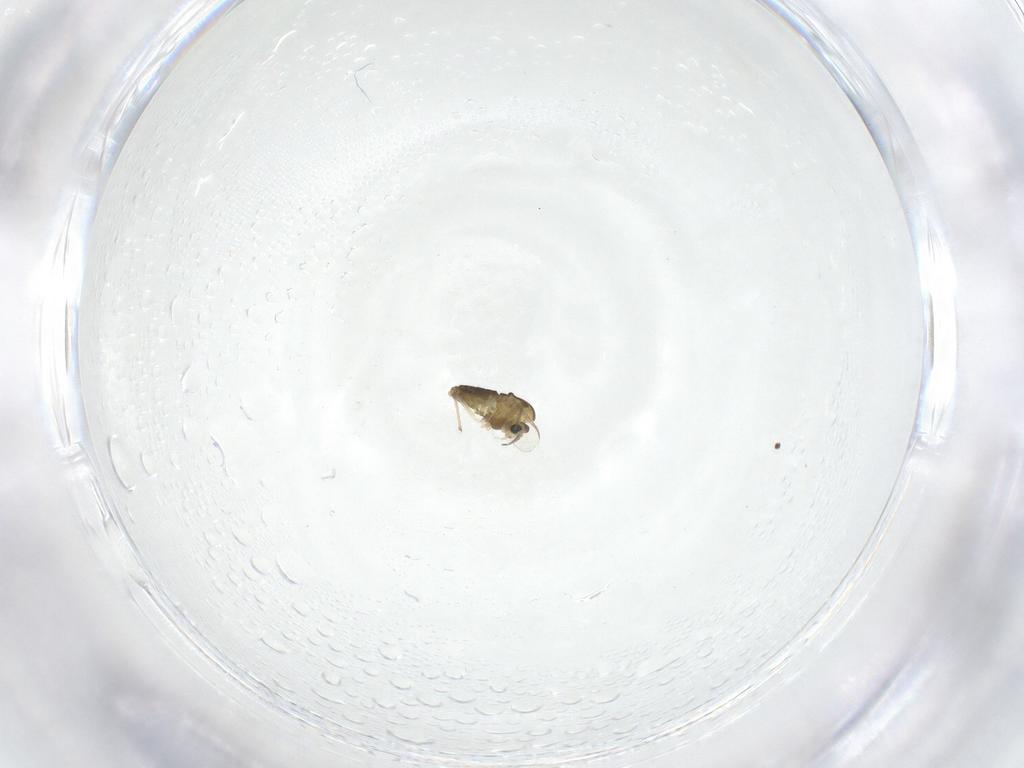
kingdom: Animalia
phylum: Arthropoda
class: Insecta
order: Diptera
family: Chironomidae
